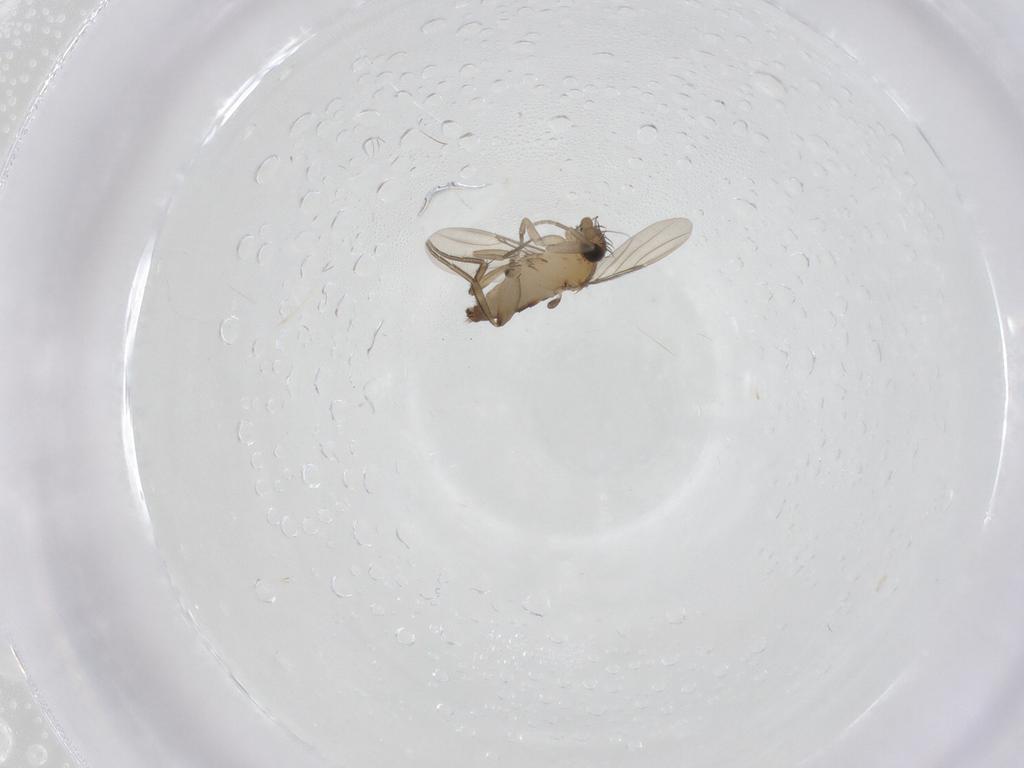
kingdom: Animalia
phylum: Arthropoda
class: Insecta
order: Diptera
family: Phoridae
